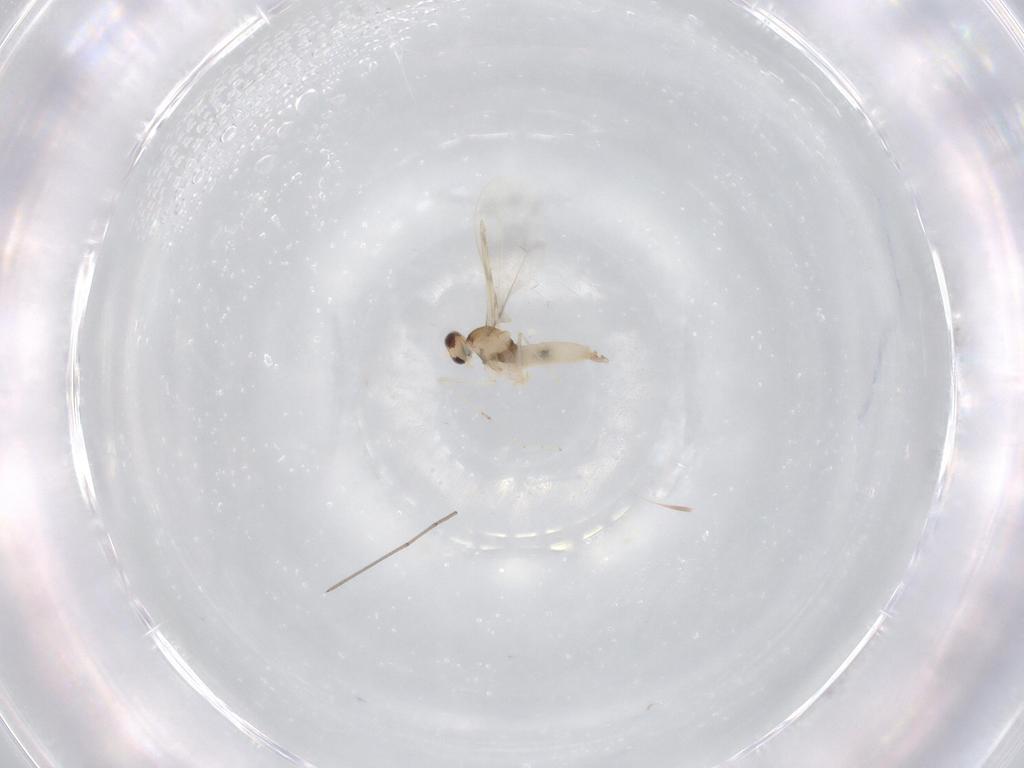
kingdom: Animalia
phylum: Arthropoda
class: Insecta
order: Diptera
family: Cecidomyiidae
